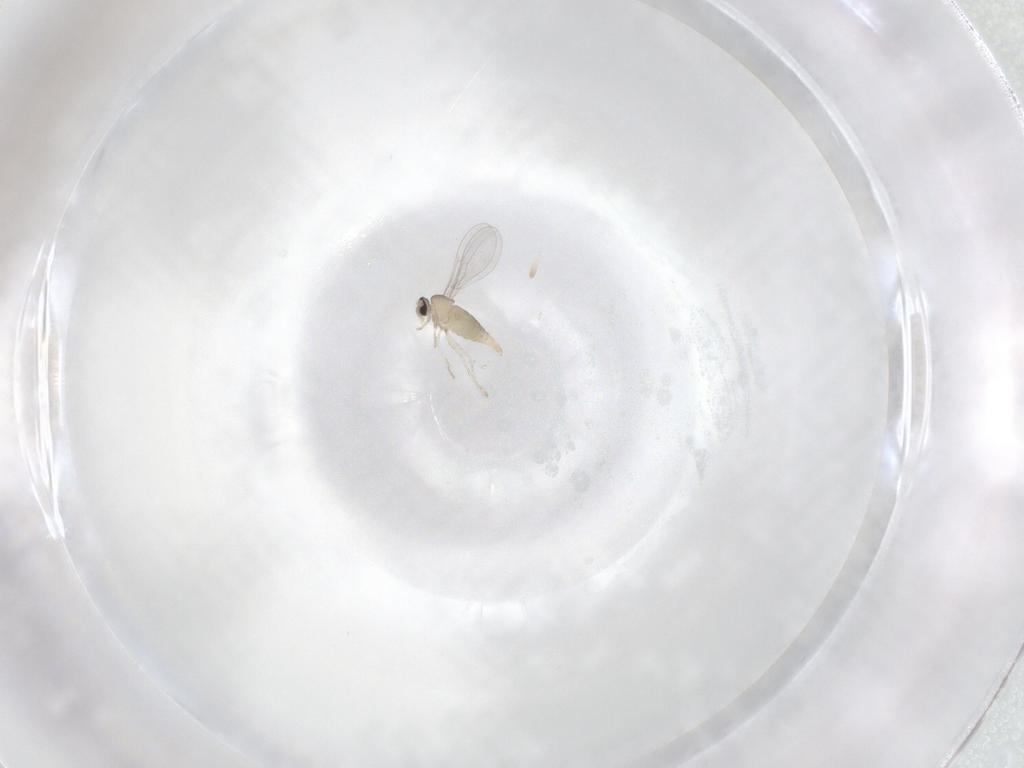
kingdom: Animalia
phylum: Arthropoda
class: Insecta
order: Diptera
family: Cecidomyiidae
